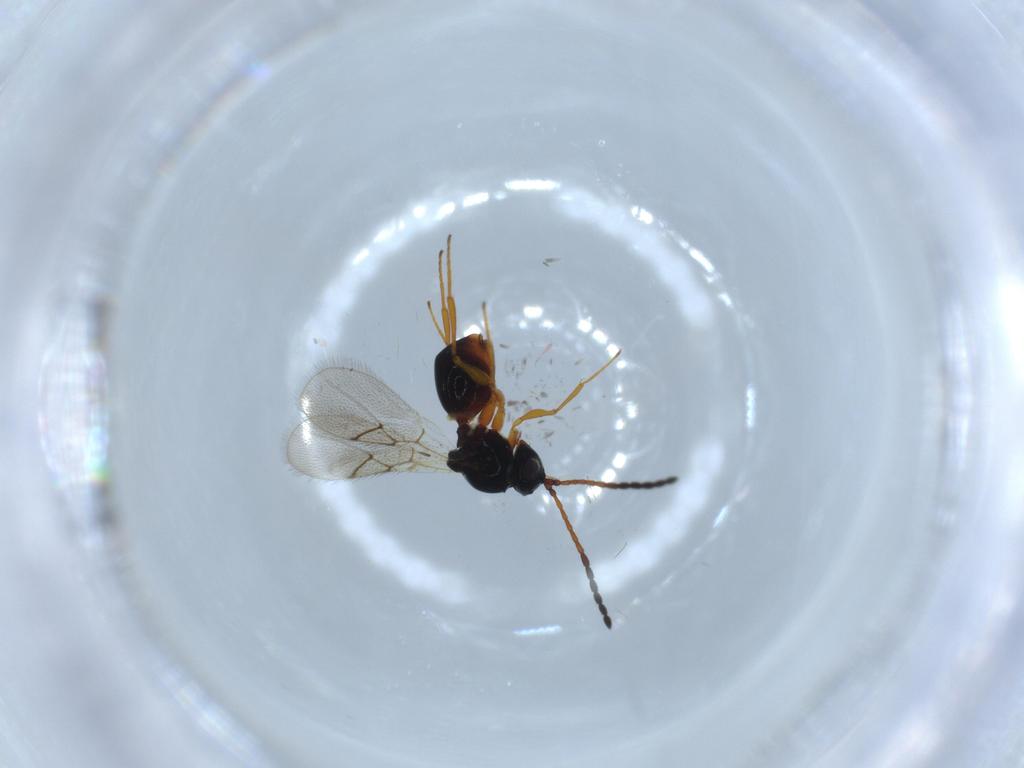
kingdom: Animalia
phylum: Arthropoda
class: Insecta
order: Hymenoptera
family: Figitidae
